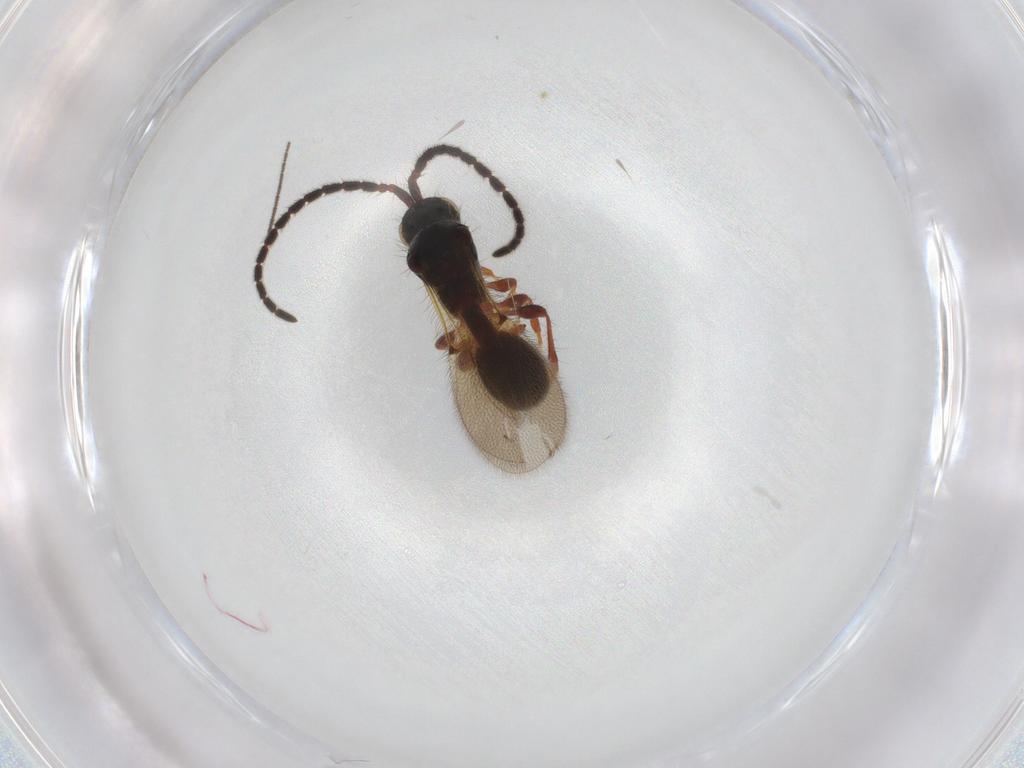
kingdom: Animalia
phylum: Arthropoda
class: Insecta
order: Hymenoptera
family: Diapriidae
